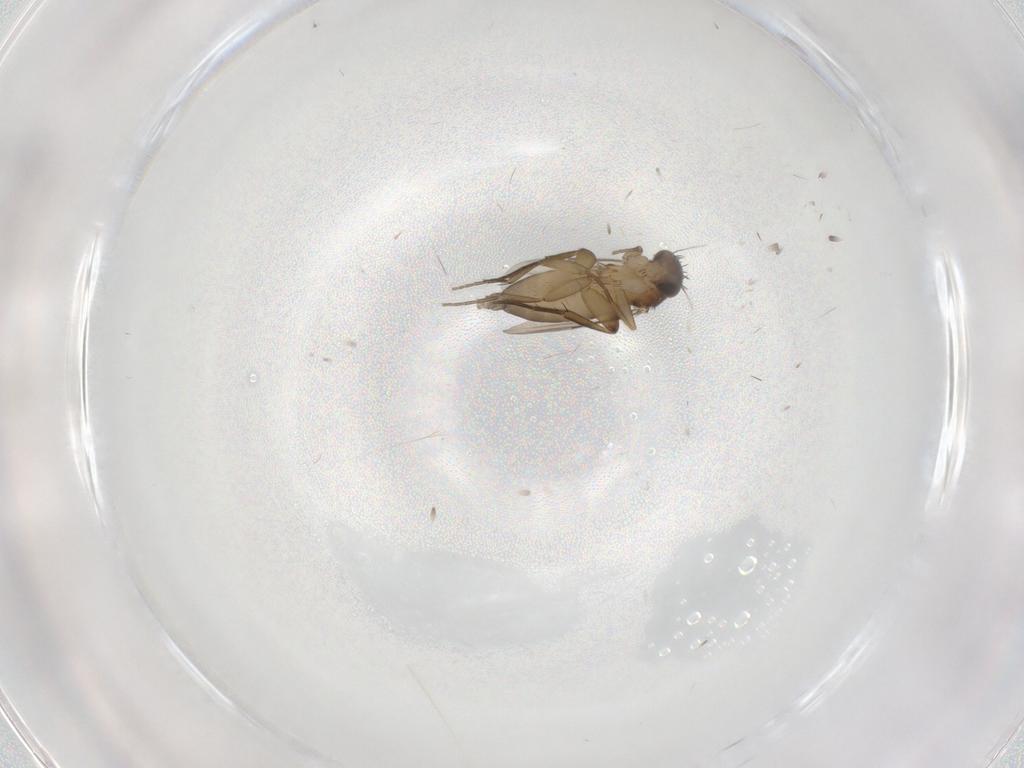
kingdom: Animalia
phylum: Arthropoda
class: Insecta
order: Diptera
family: Phoridae
